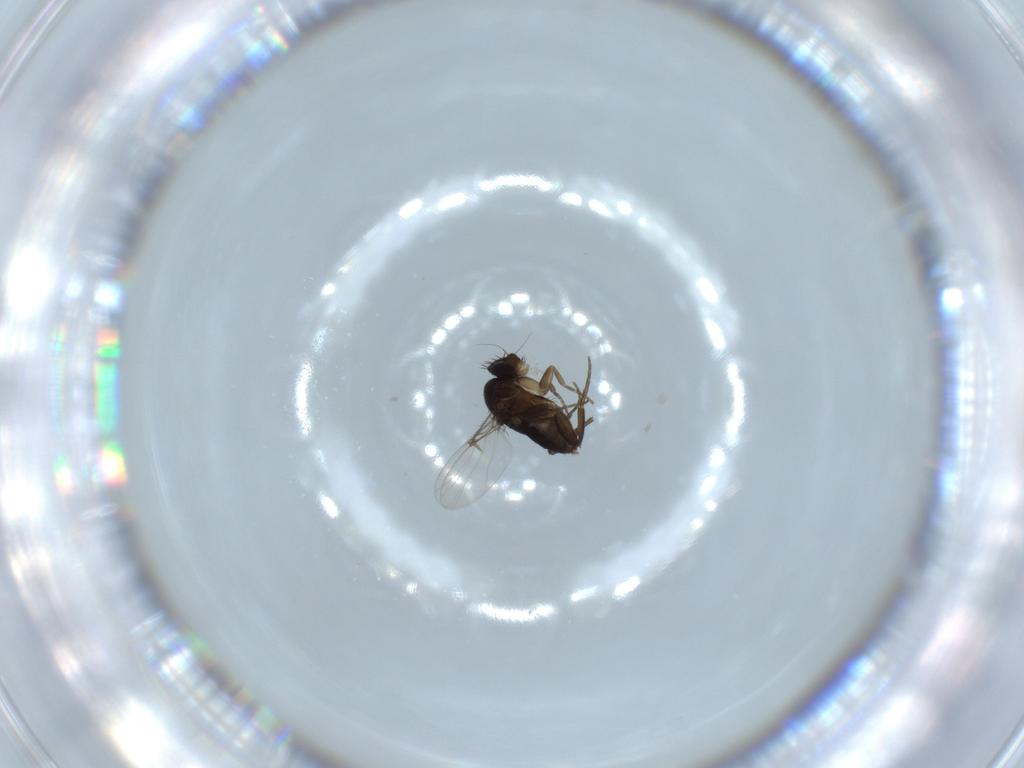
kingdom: Animalia
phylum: Arthropoda
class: Insecta
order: Diptera
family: Phoridae
